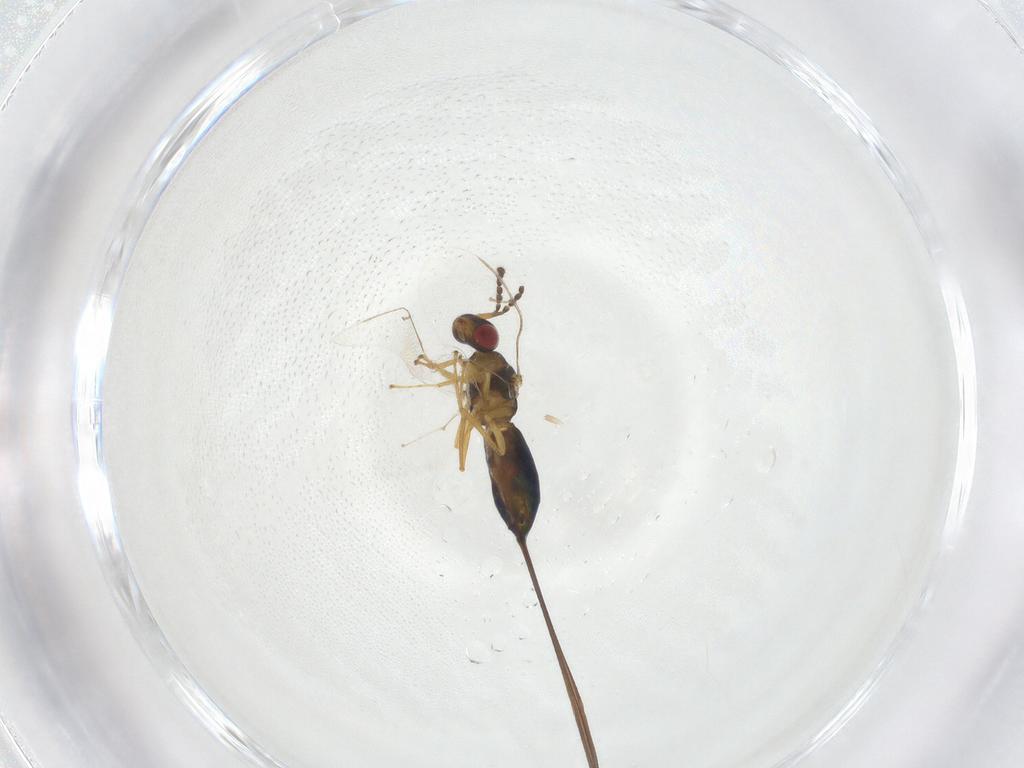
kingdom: Animalia
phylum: Arthropoda
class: Insecta
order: Hymenoptera
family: Pteromalidae
